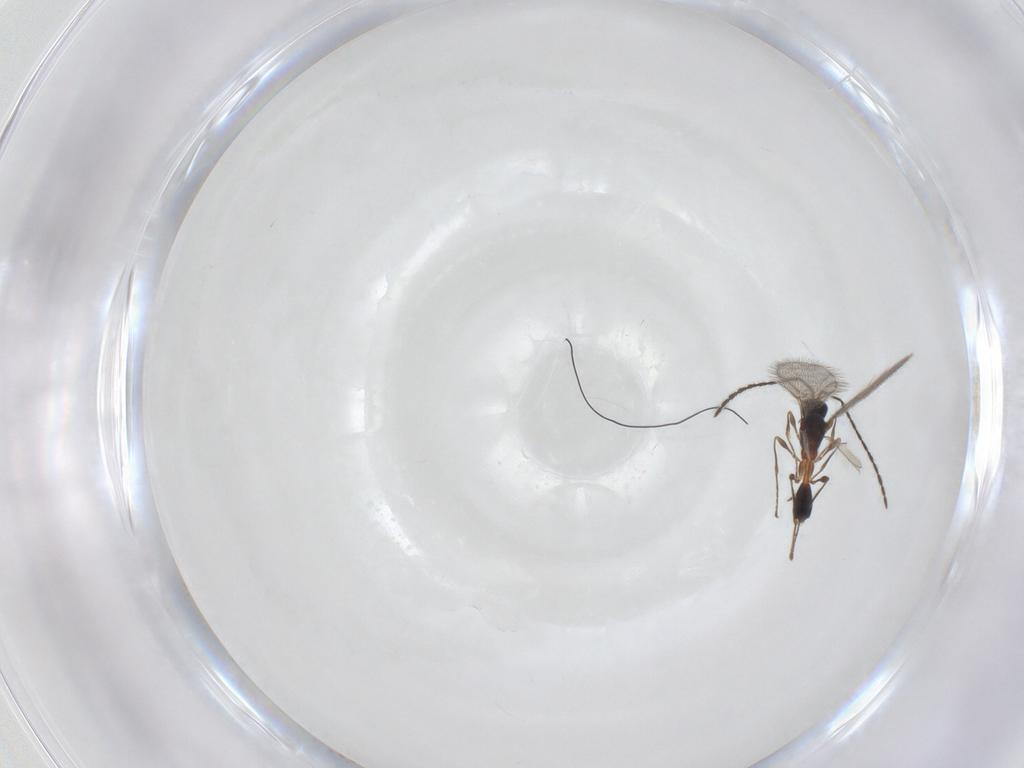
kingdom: Animalia
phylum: Arthropoda
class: Insecta
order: Hymenoptera
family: Diapriidae
